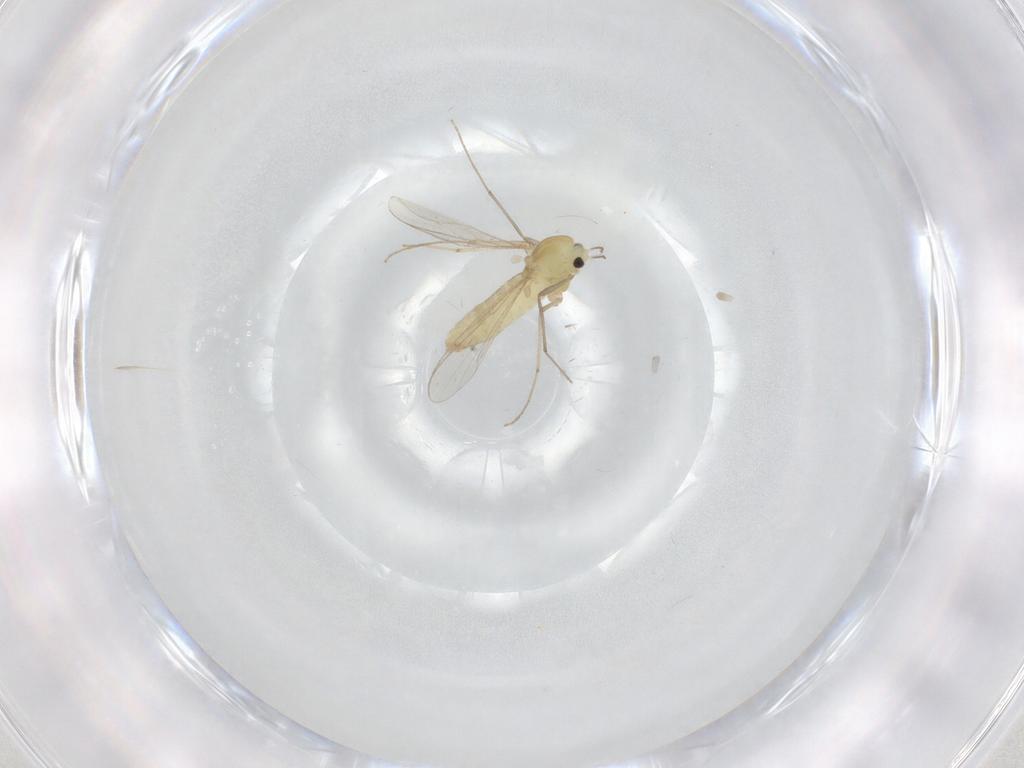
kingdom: Animalia
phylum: Arthropoda
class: Insecta
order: Diptera
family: Chironomidae
